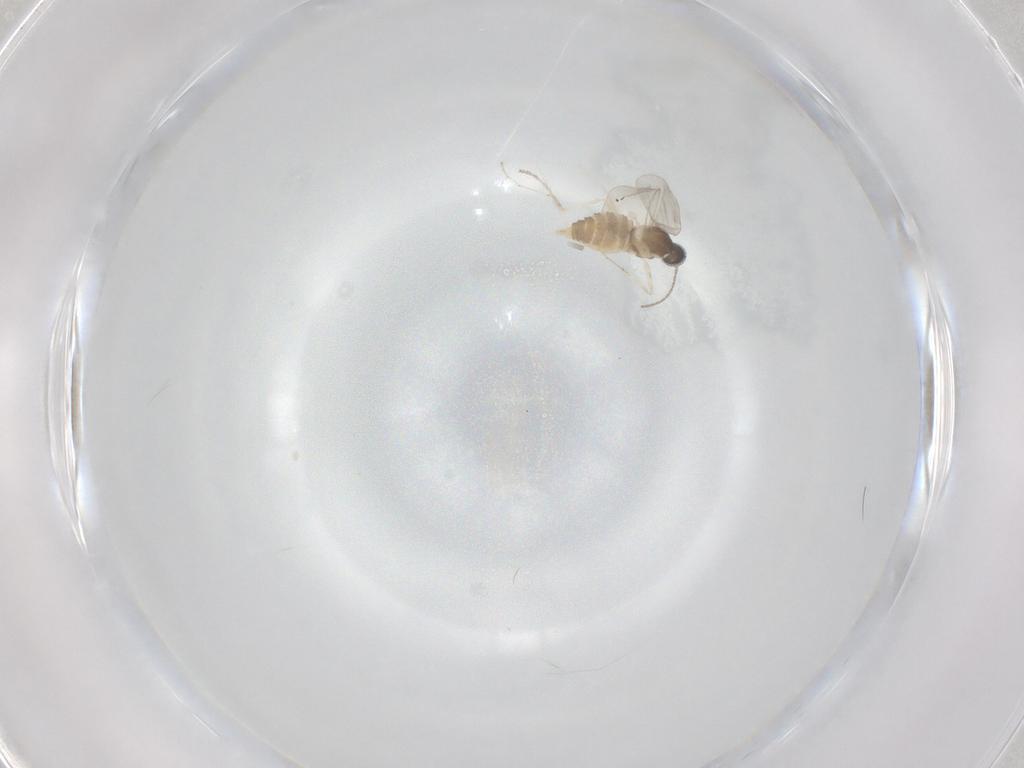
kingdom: Animalia
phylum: Arthropoda
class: Insecta
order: Diptera
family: Cecidomyiidae
